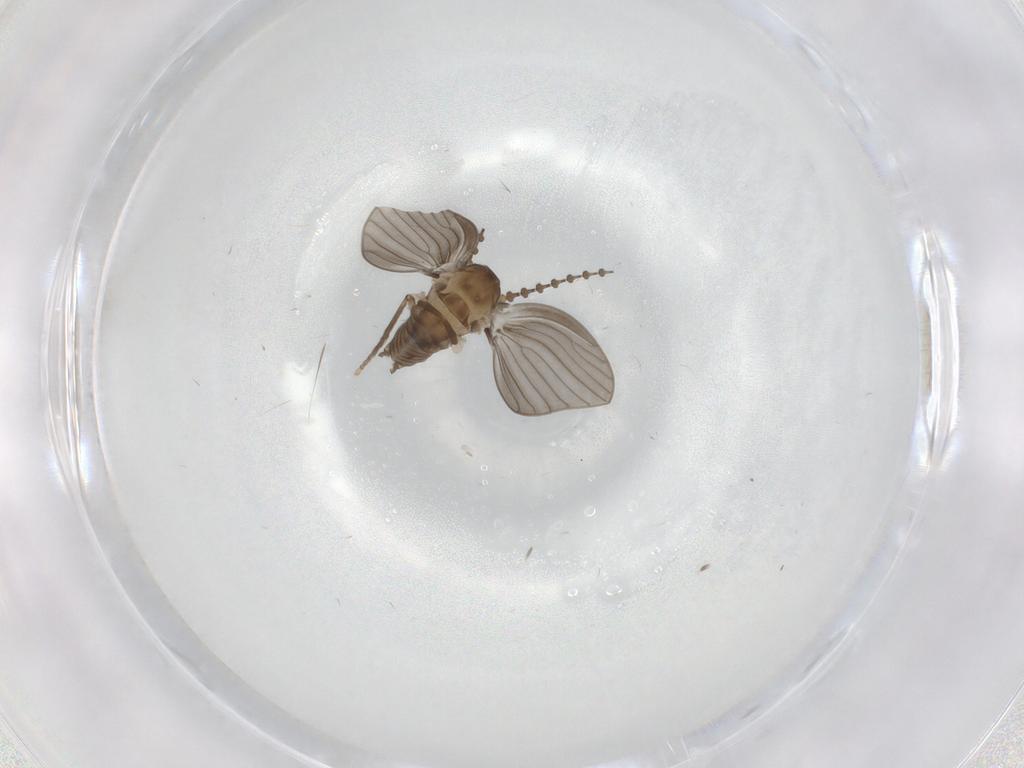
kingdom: Animalia
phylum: Arthropoda
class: Insecta
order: Diptera
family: Psychodidae
